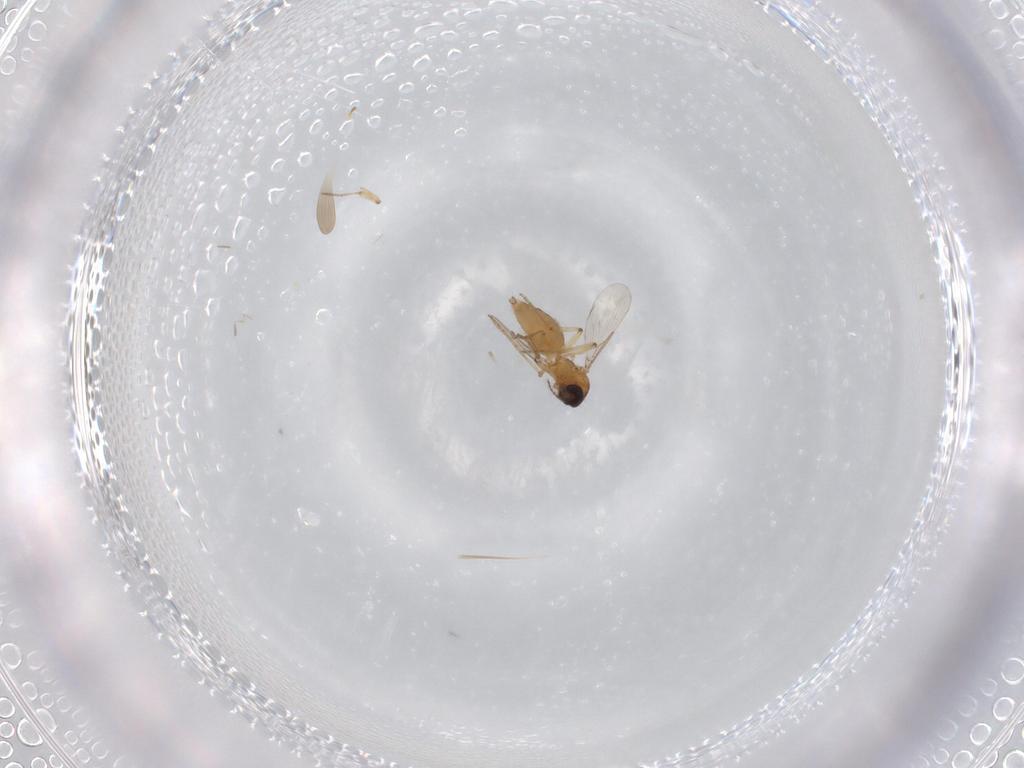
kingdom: Animalia
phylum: Arthropoda
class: Insecta
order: Diptera
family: Ceratopogonidae
